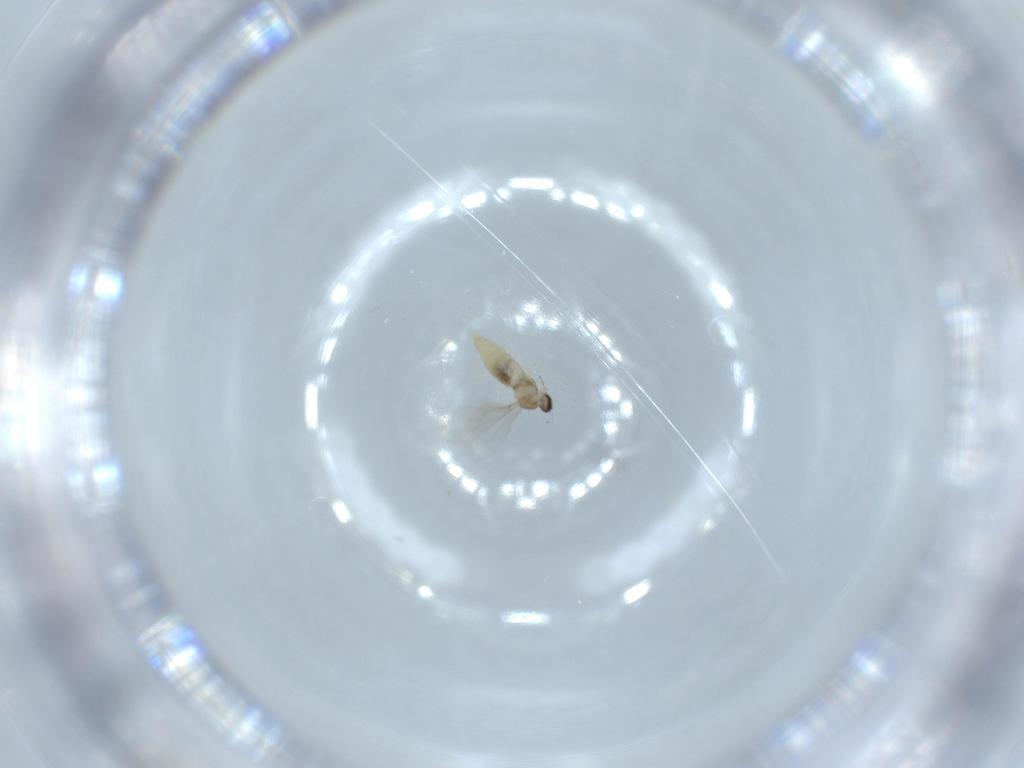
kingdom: Animalia
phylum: Arthropoda
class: Insecta
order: Diptera
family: Cecidomyiidae
